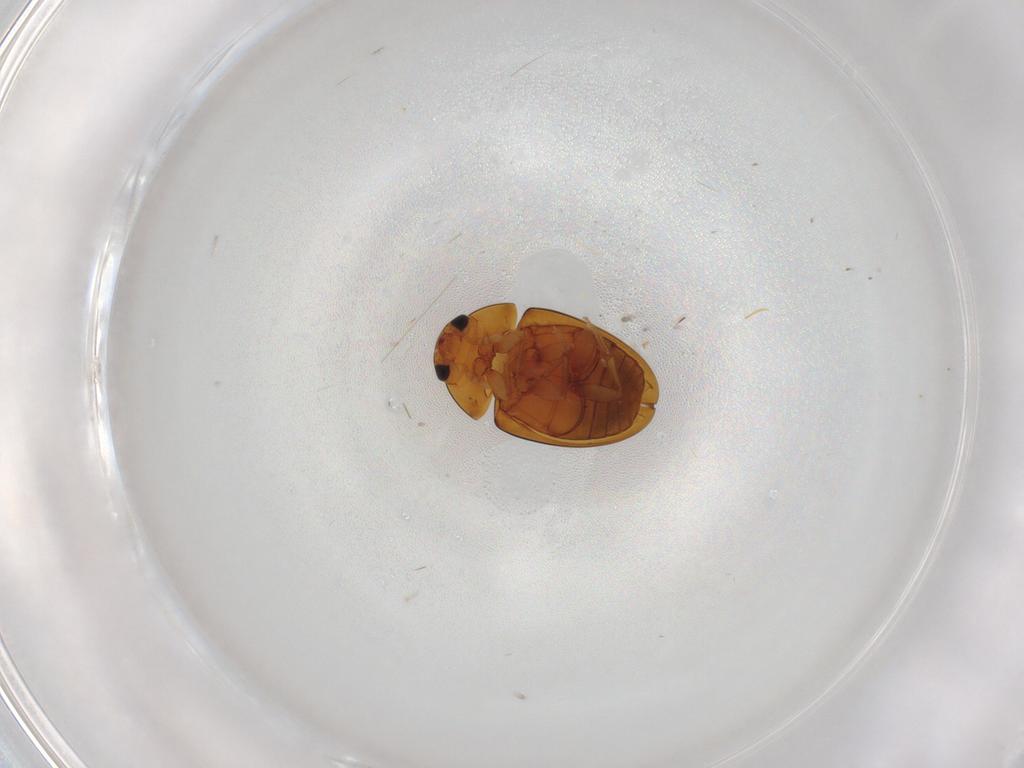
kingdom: Animalia
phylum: Arthropoda
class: Insecta
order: Coleoptera
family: Phalacridae
